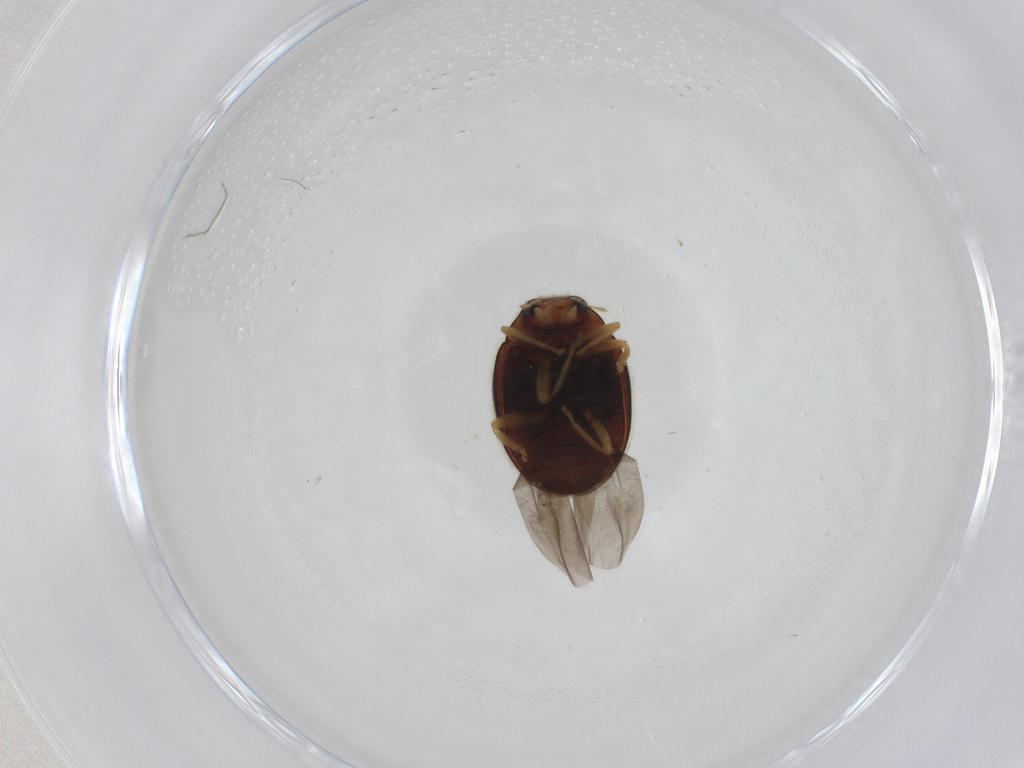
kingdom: Animalia
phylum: Arthropoda
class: Insecta
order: Coleoptera
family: Coccinellidae
